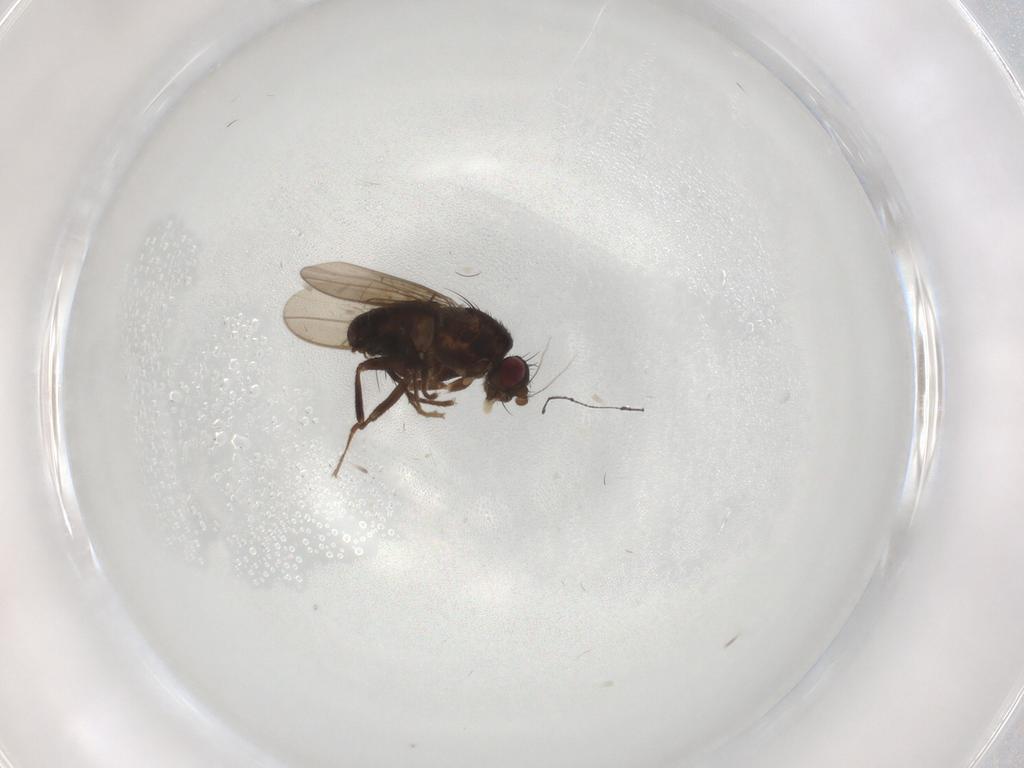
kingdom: Animalia
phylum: Arthropoda
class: Insecta
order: Diptera
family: Sphaeroceridae
